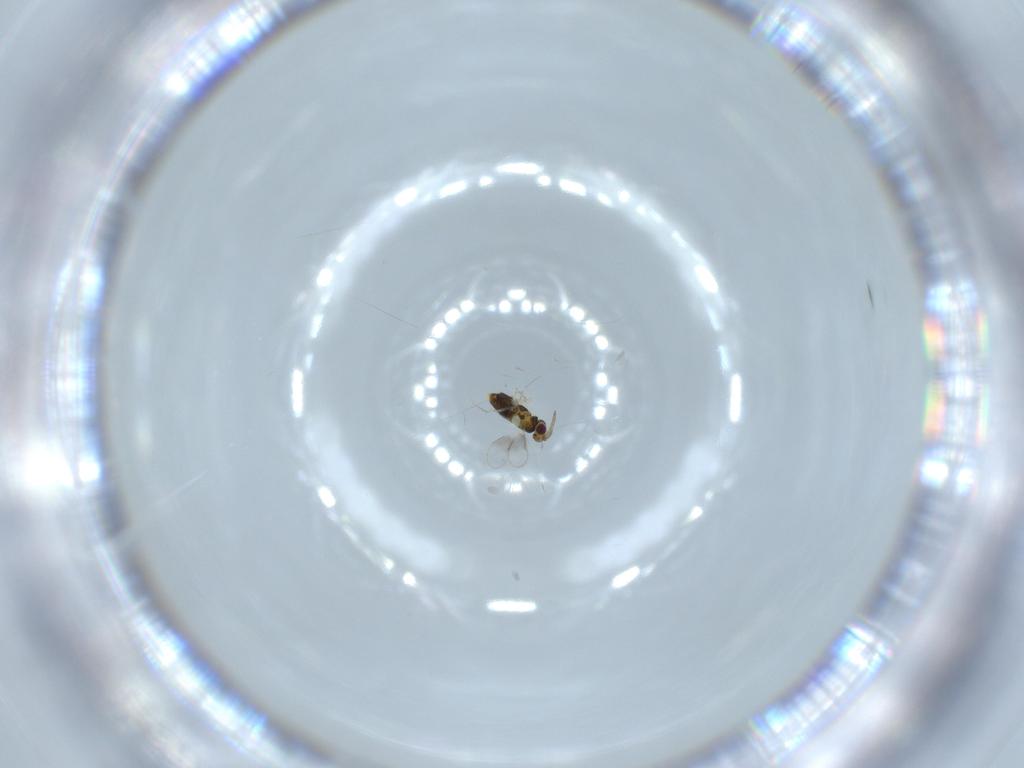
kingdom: Animalia
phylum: Arthropoda
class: Insecta
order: Hymenoptera
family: Aphelinidae
